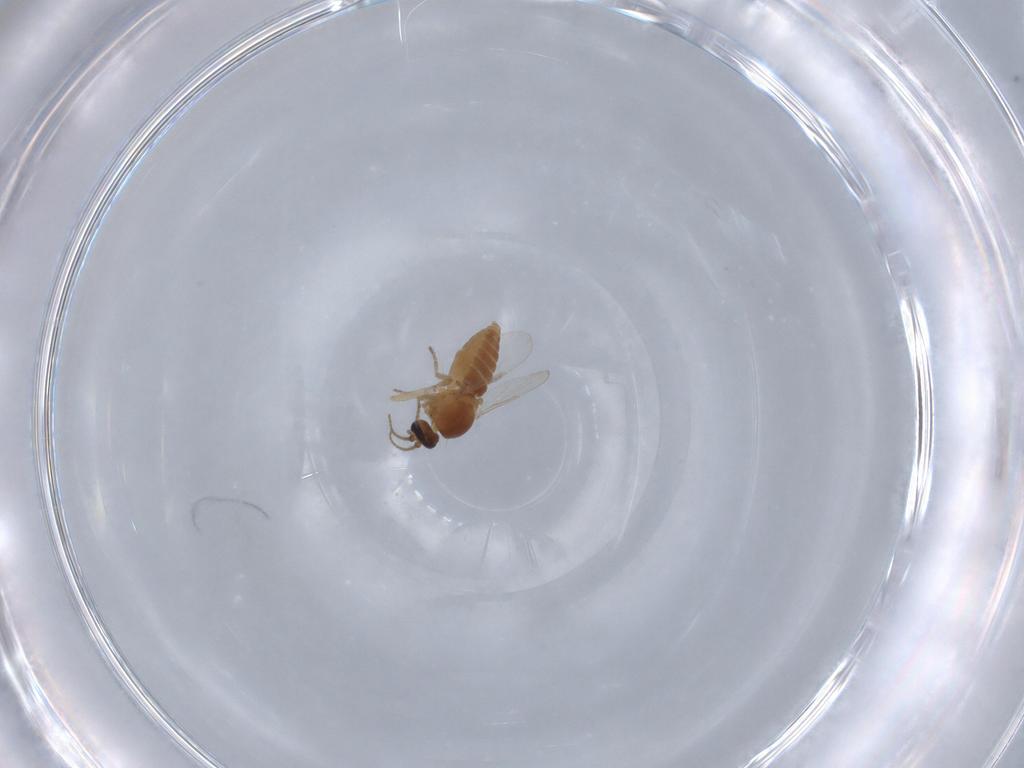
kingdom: Animalia
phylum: Arthropoda
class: Insecta
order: Diptera
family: Ceratopogonidae
